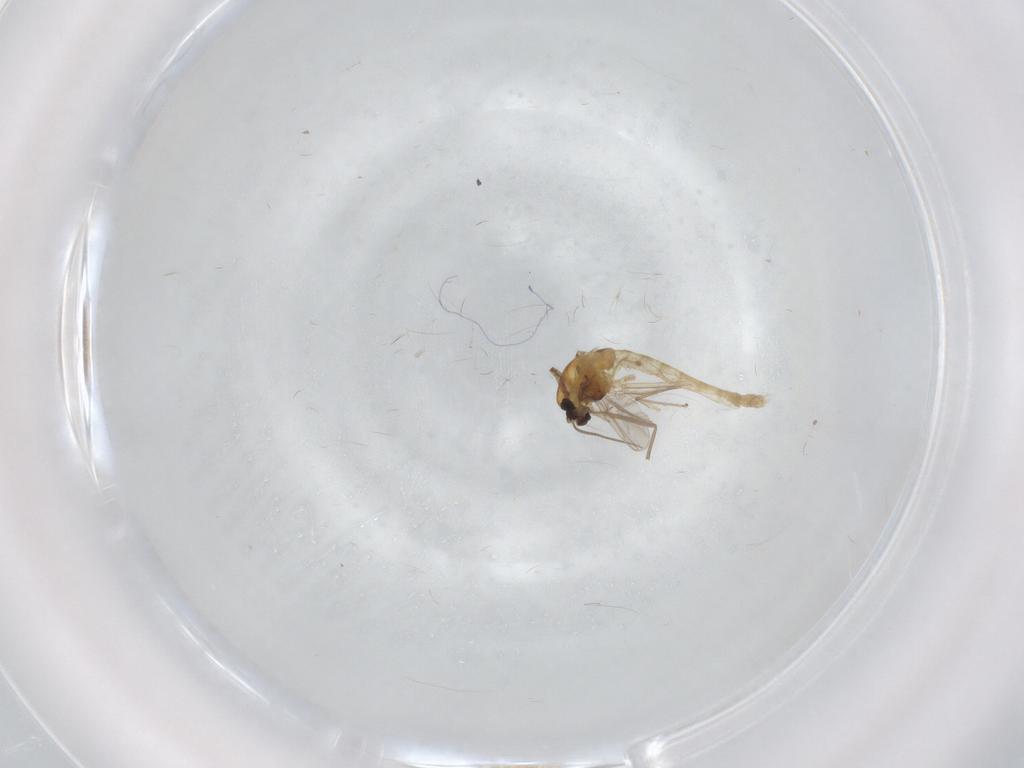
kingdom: Animalia
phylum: Arthropoda
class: Insecta
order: Diptera
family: Chironomidae
